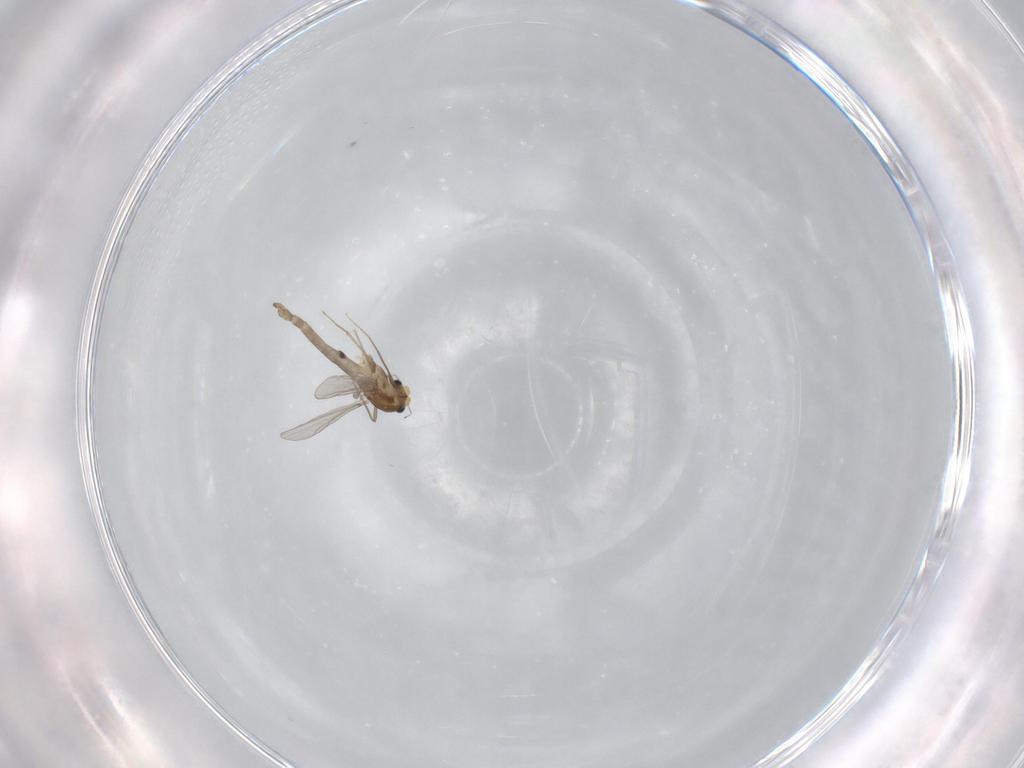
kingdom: Animalia
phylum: Arthropoda
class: Insecta
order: Diptera
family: Chironomidae
